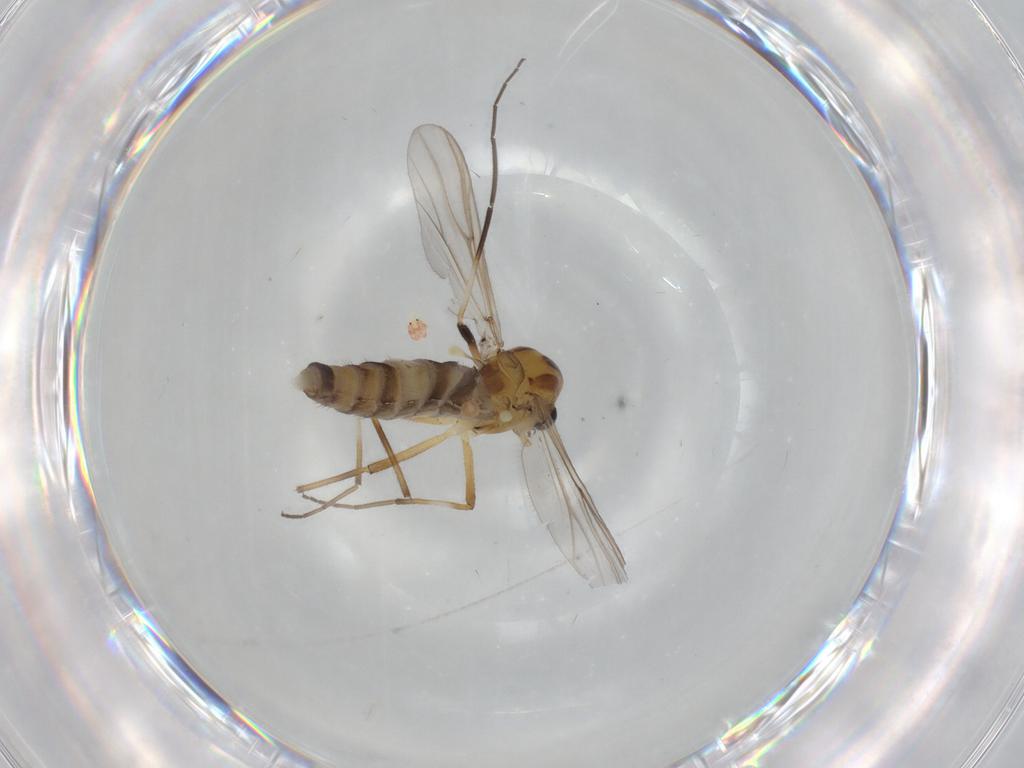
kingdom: Animalia
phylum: Arthropoda
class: Insecta
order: Diptera
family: Chironomidae
